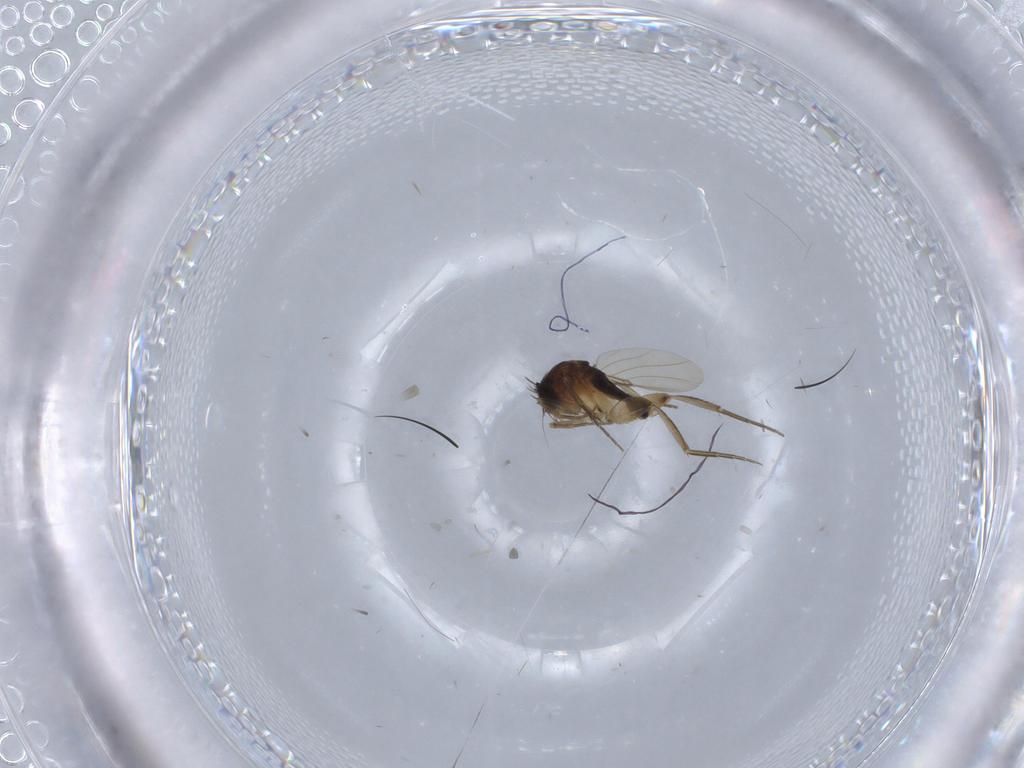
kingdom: Animalia
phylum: Arthropoda
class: Insecta
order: Diptera
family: Phoridae
